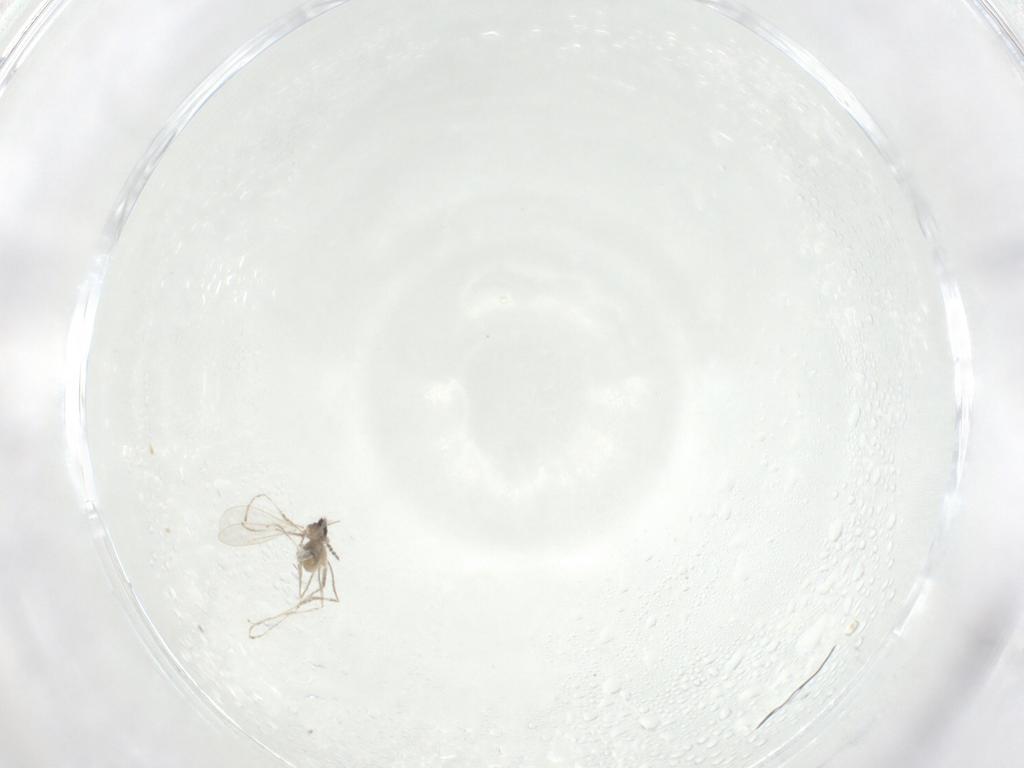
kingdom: Animalia
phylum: Arthropoda
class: Insecta
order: Diptera
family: Cecidomyiidae
